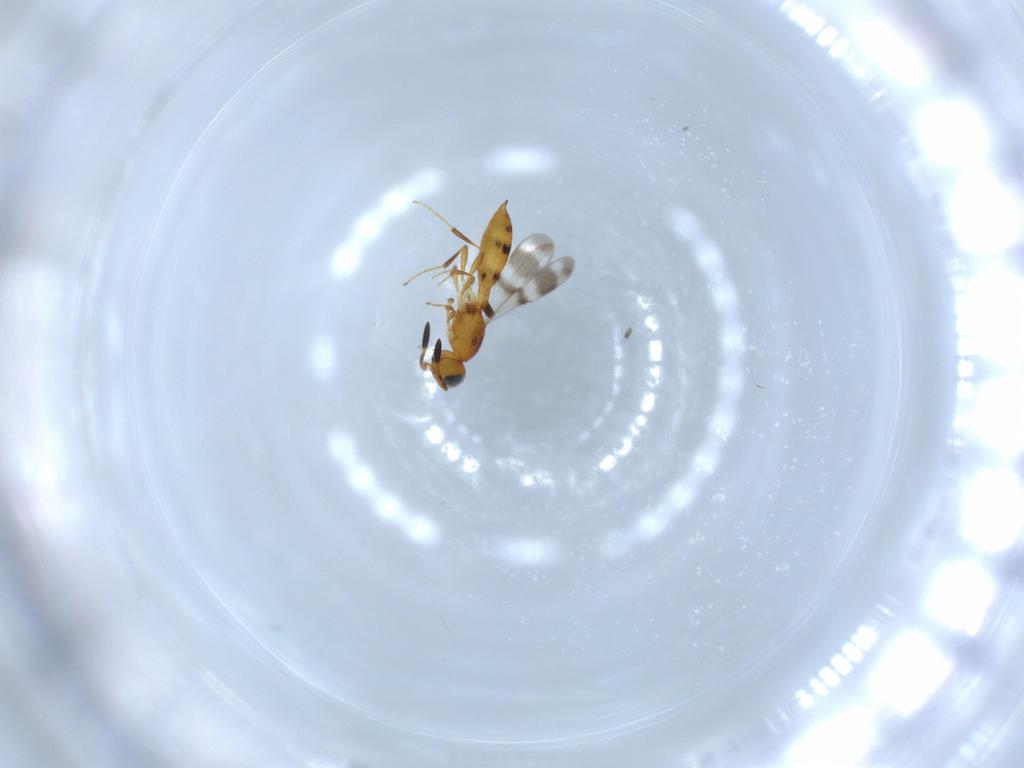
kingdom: Animalia
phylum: Arthropoda
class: Insecta
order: Hymenoptera
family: Scelionidae
